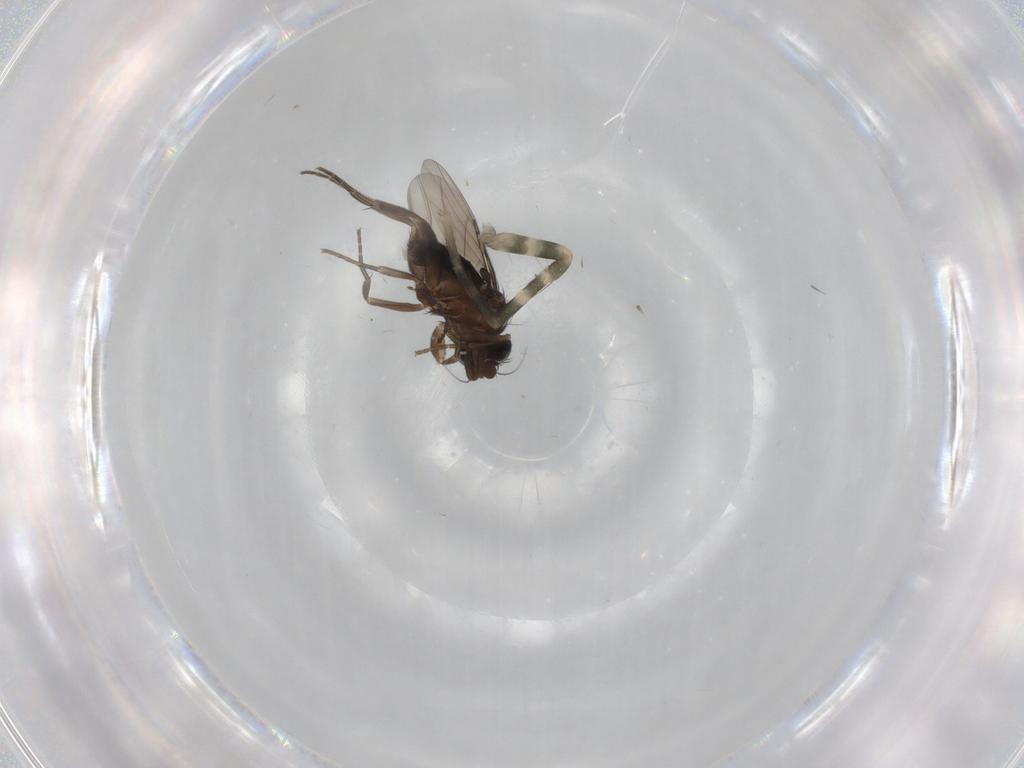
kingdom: Animalia
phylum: Arthropoda
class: Insecta
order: Diptera
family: Phoridae
